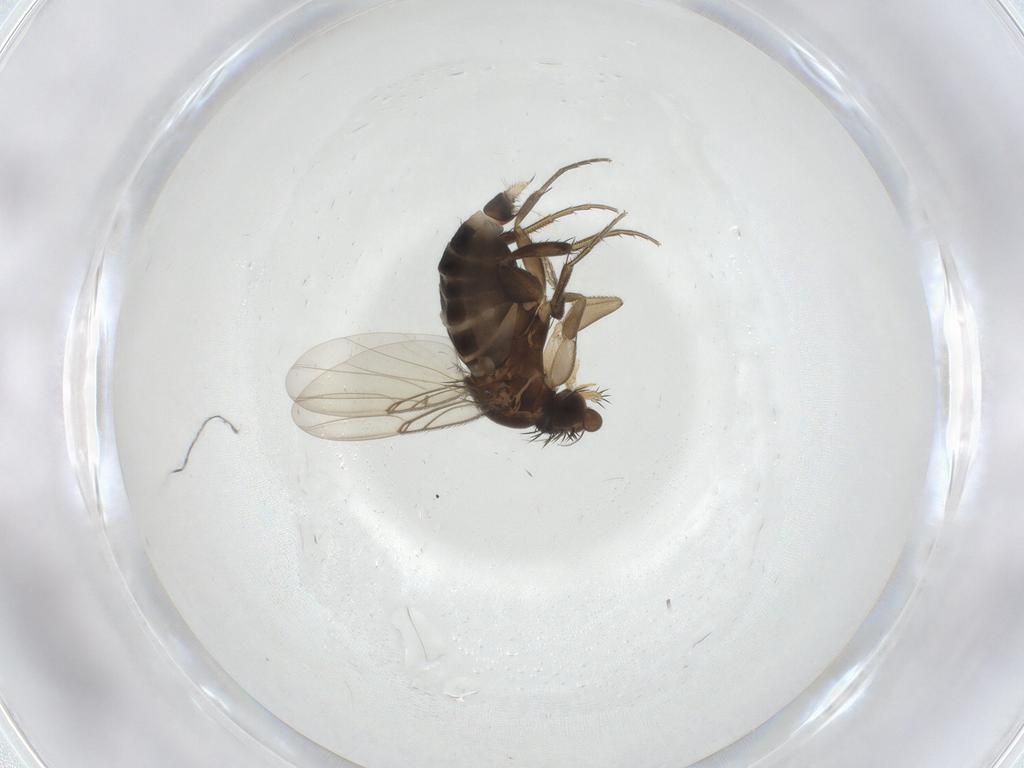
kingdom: Animalia
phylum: Arthropoda
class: Insecta
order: Diptera
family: Phoridae
